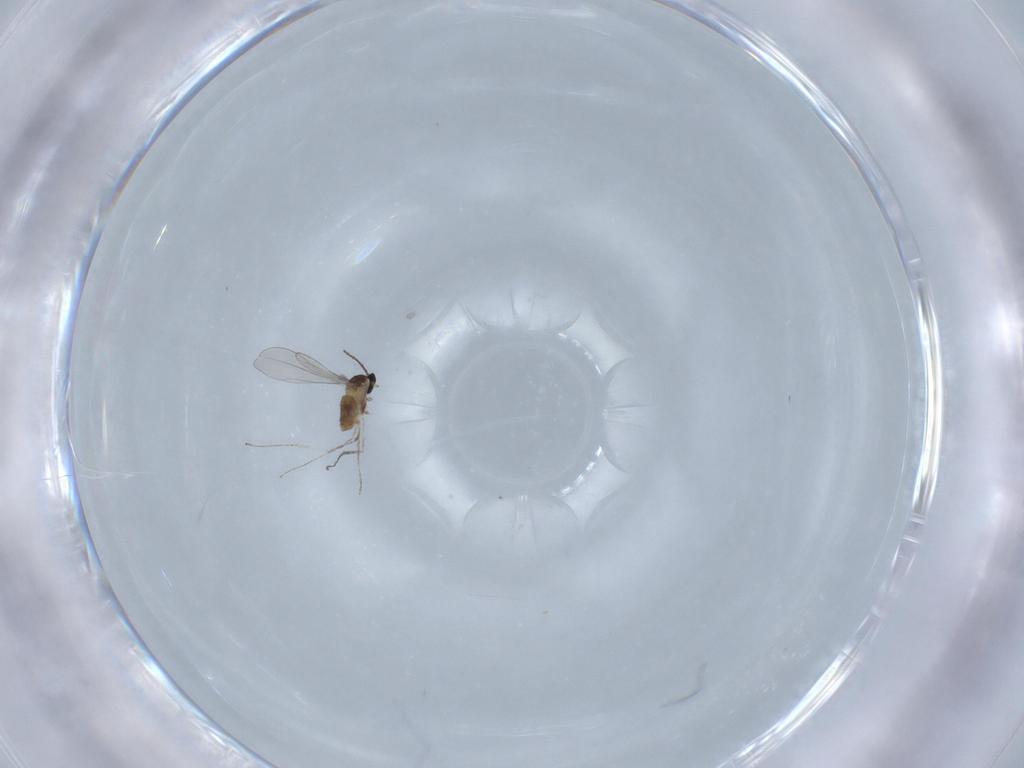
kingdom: Animalia
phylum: Arthropoda
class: Insecta
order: Diptera
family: Cecidomyiidae
